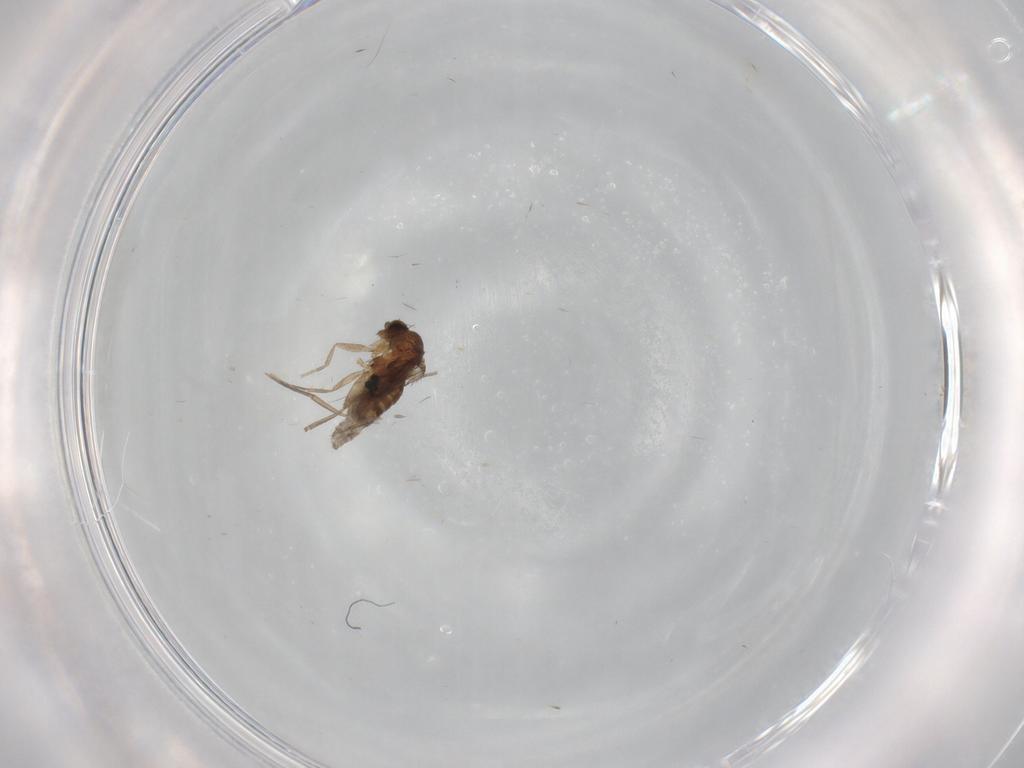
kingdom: Animalia
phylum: Arthropoda
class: Insecta
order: Diptera
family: Phoridae
